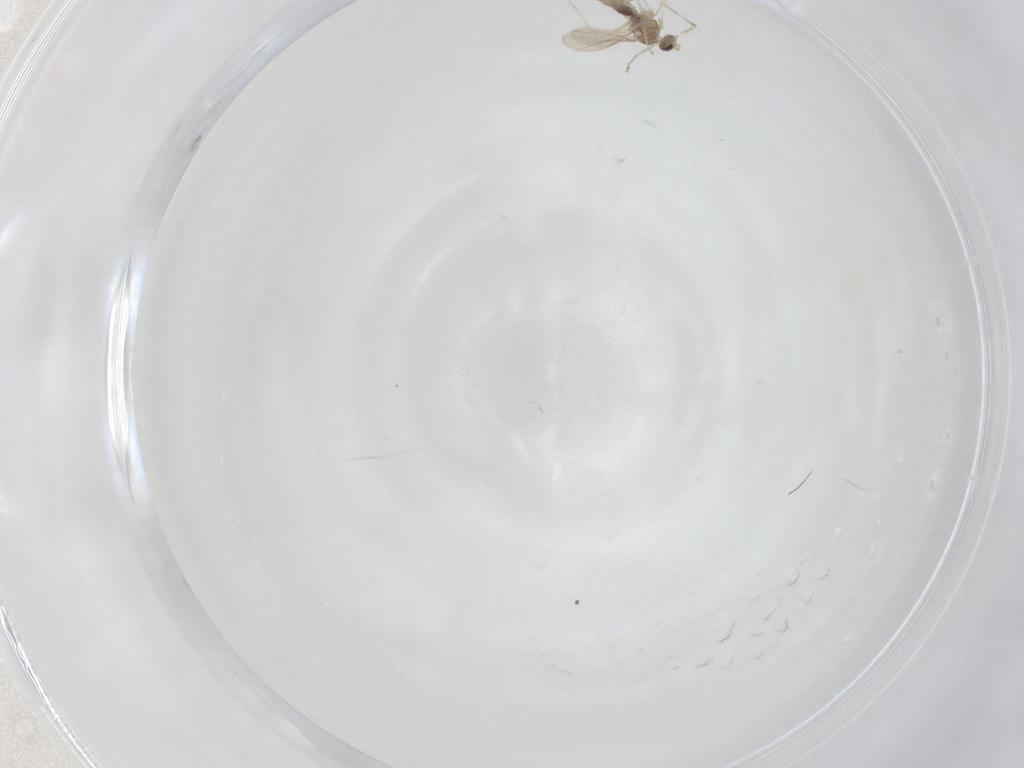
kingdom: Animalia
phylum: Arthropoda
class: Insecta
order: Diptera
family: Cecidomyiidae
